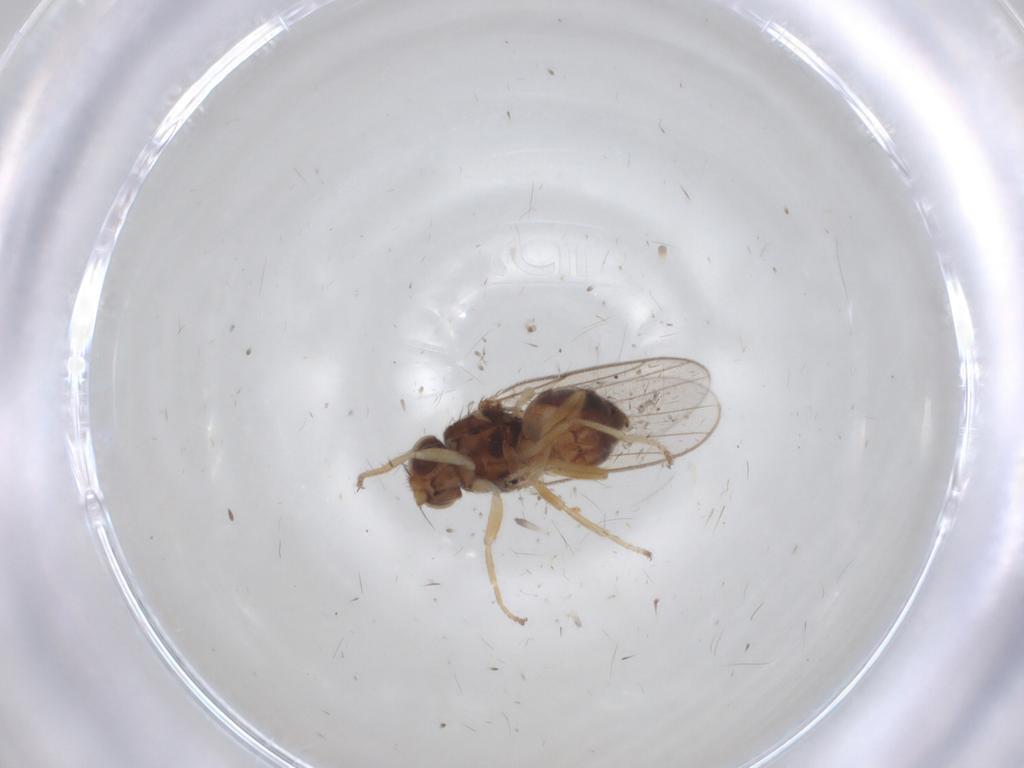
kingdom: Animalia
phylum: Arthropoda
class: Insecta
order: Diptera
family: Chloropidae
